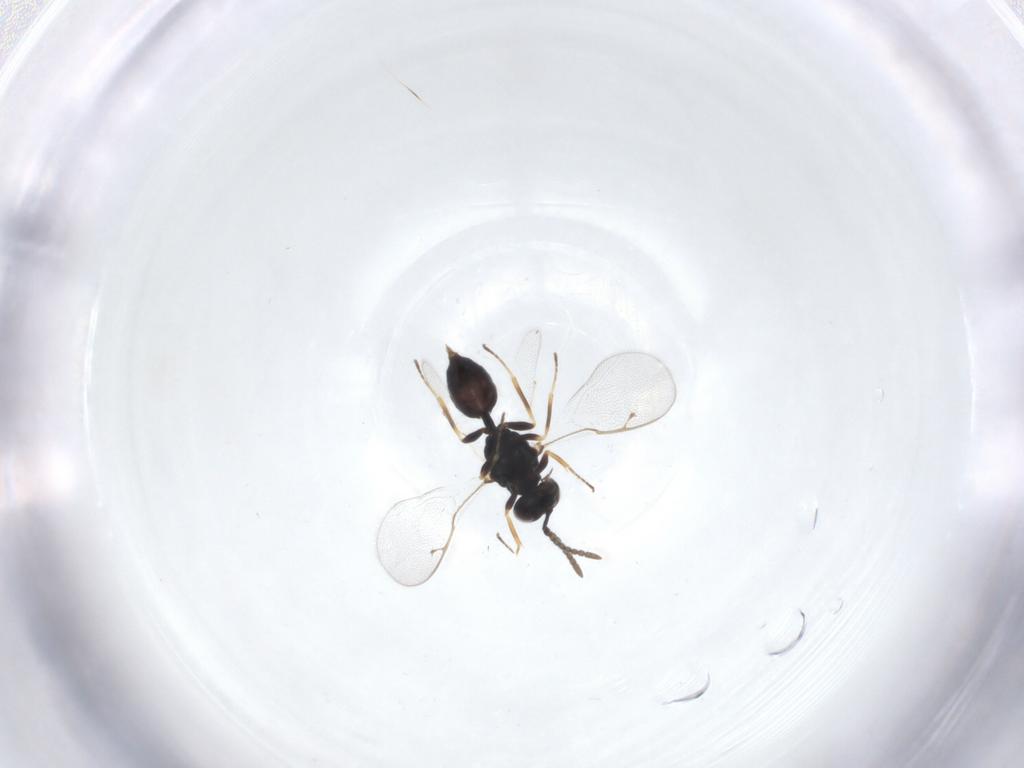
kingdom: Animalia
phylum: Arthropoda
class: Insecta
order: Hymenoptera
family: Pteromalidae
